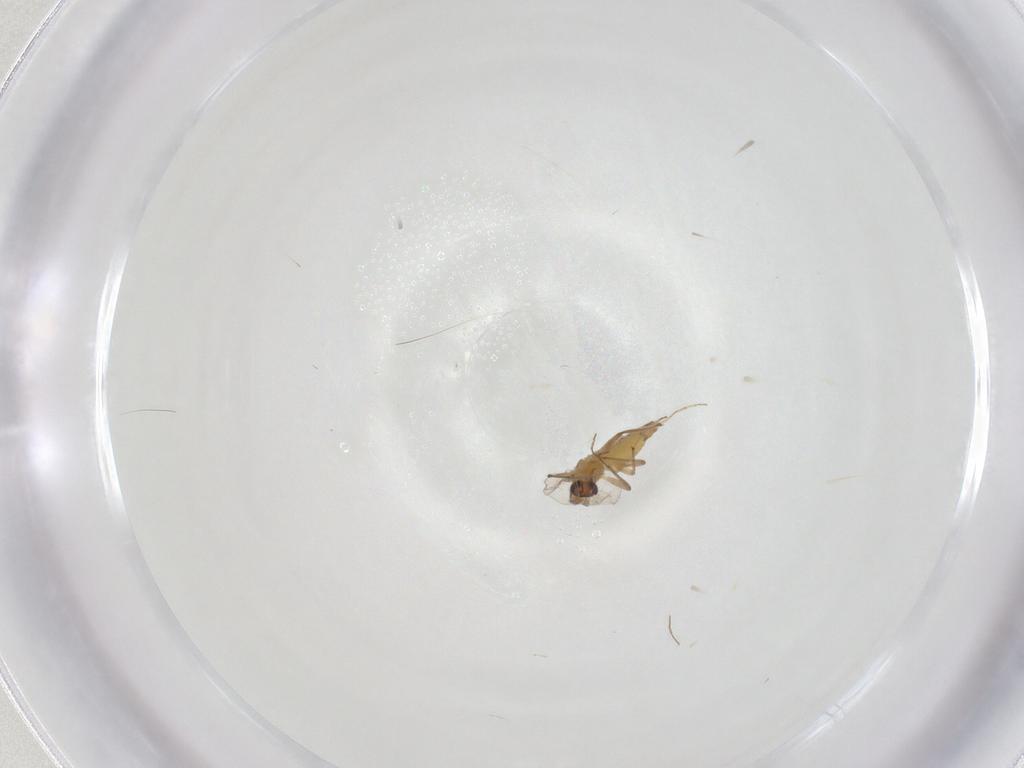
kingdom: Animalia
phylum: Arthropoda
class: Insecta
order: Diptera
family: Chironomidae
